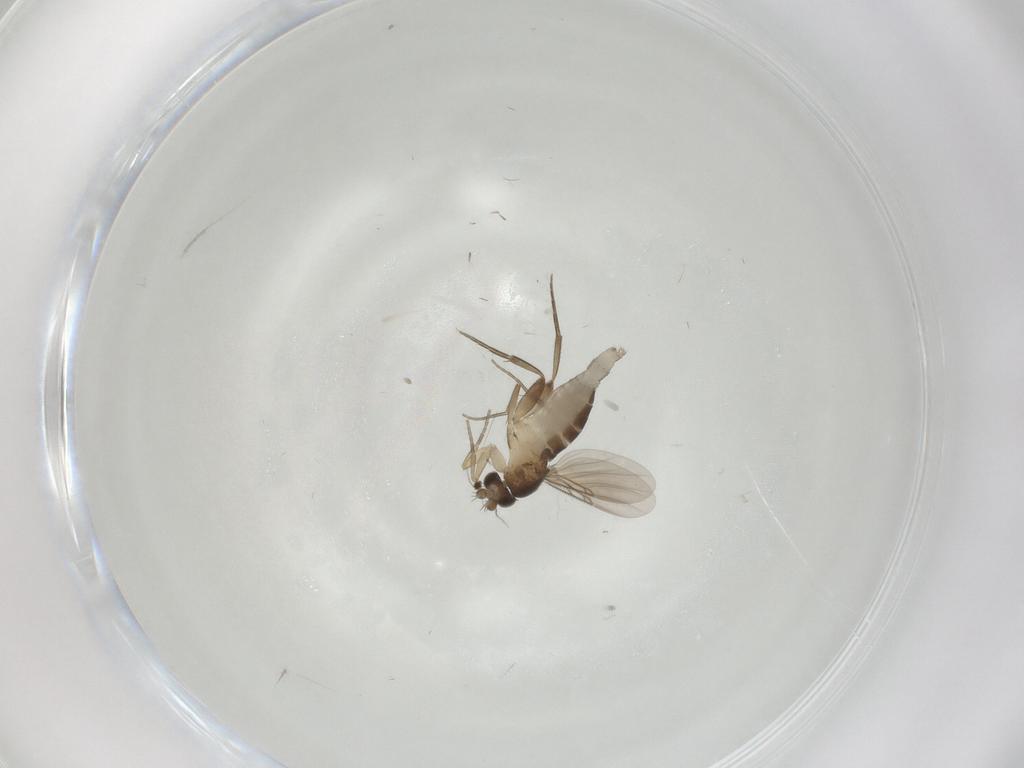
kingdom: Animalia
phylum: Arthropoda
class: Insecta
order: Diptera
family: Phoridae
